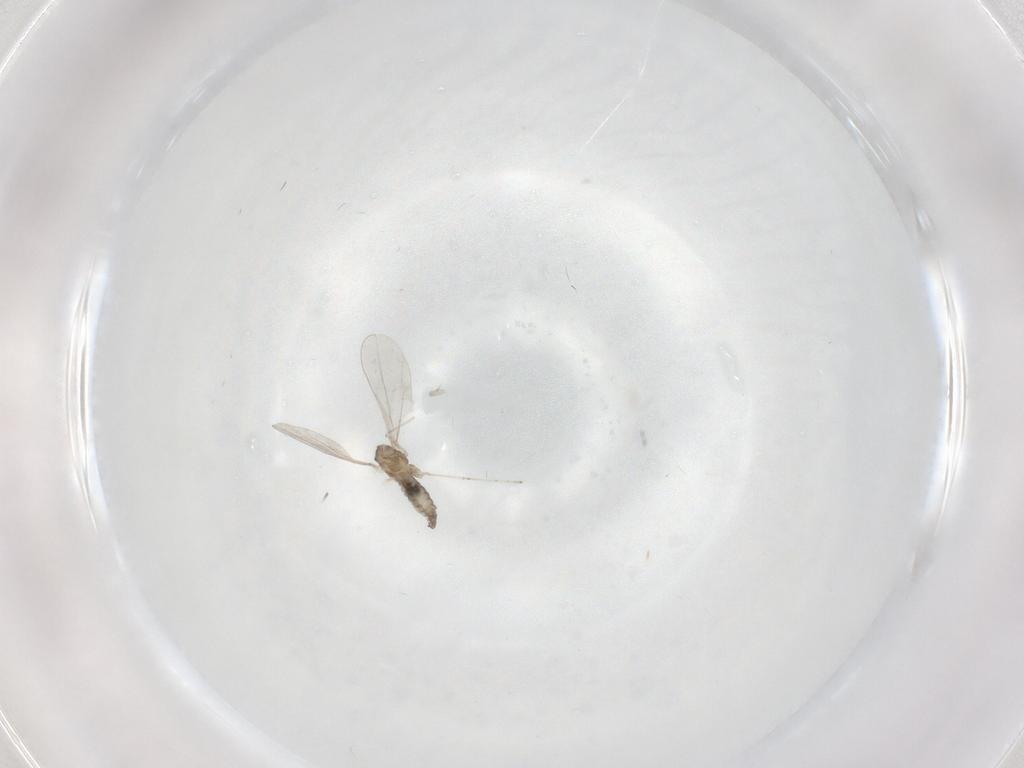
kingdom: Animalia
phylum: Arthropoda
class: Insecta
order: Diptera
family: Cecidomyiidae
